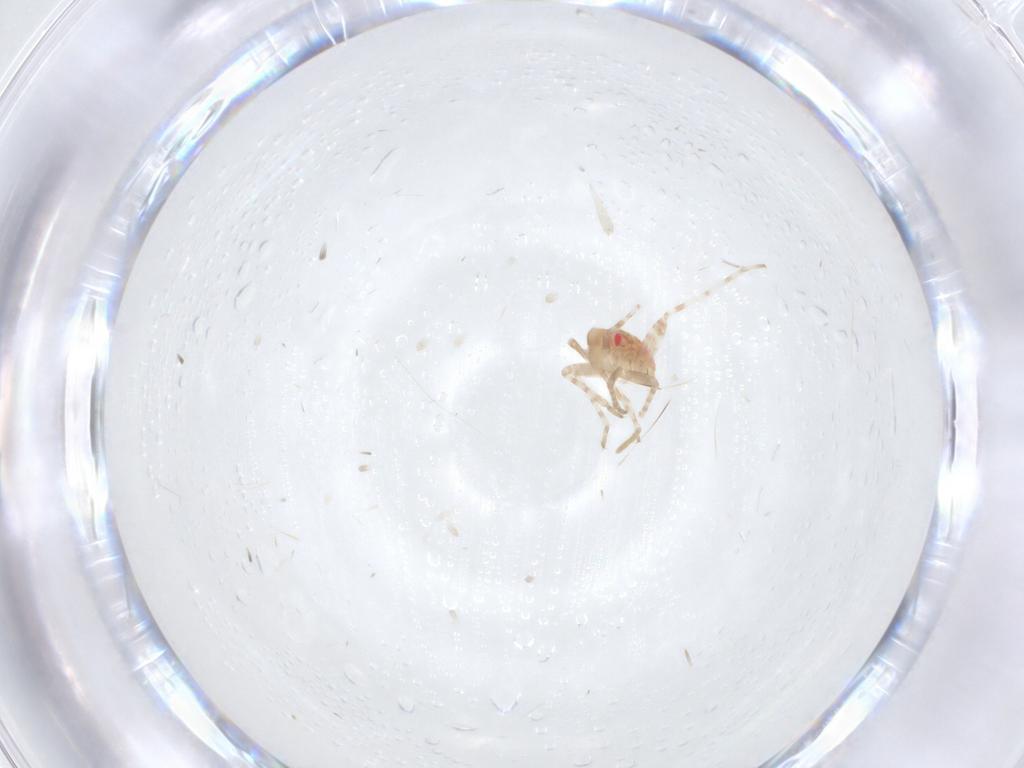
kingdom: Animalia
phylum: Arthropoda
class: Insecta
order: Hemiptera
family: Miridae
